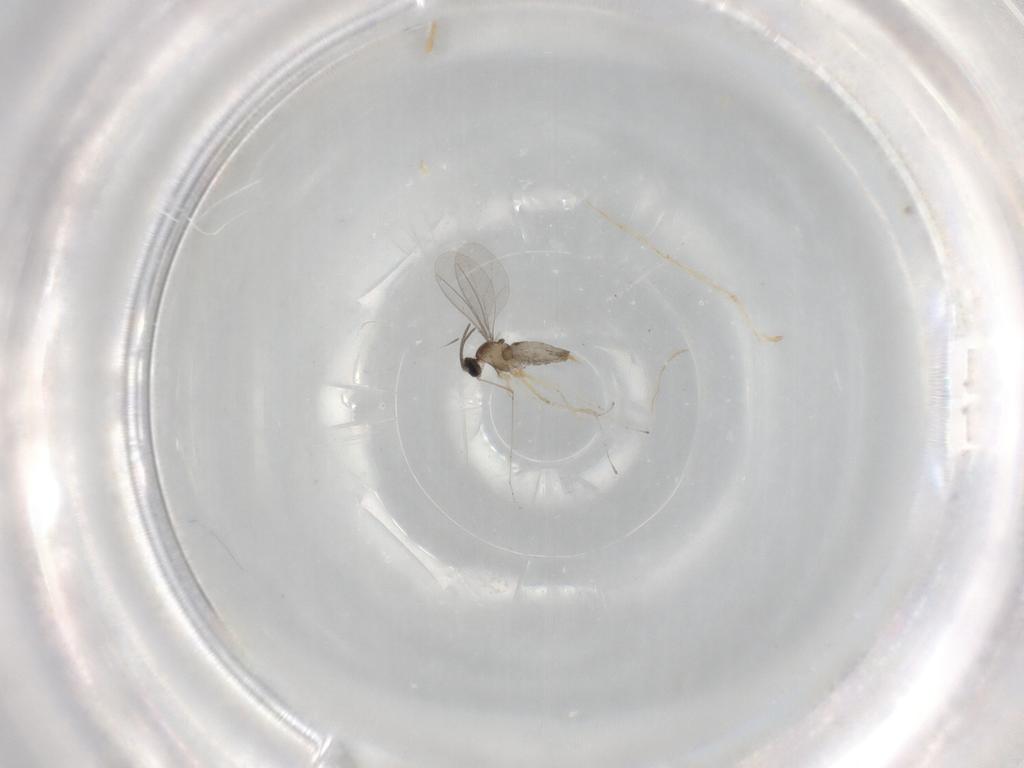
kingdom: Animalia
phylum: Arthropoda
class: Insecta
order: Diptera
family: Cecidomyiidae
